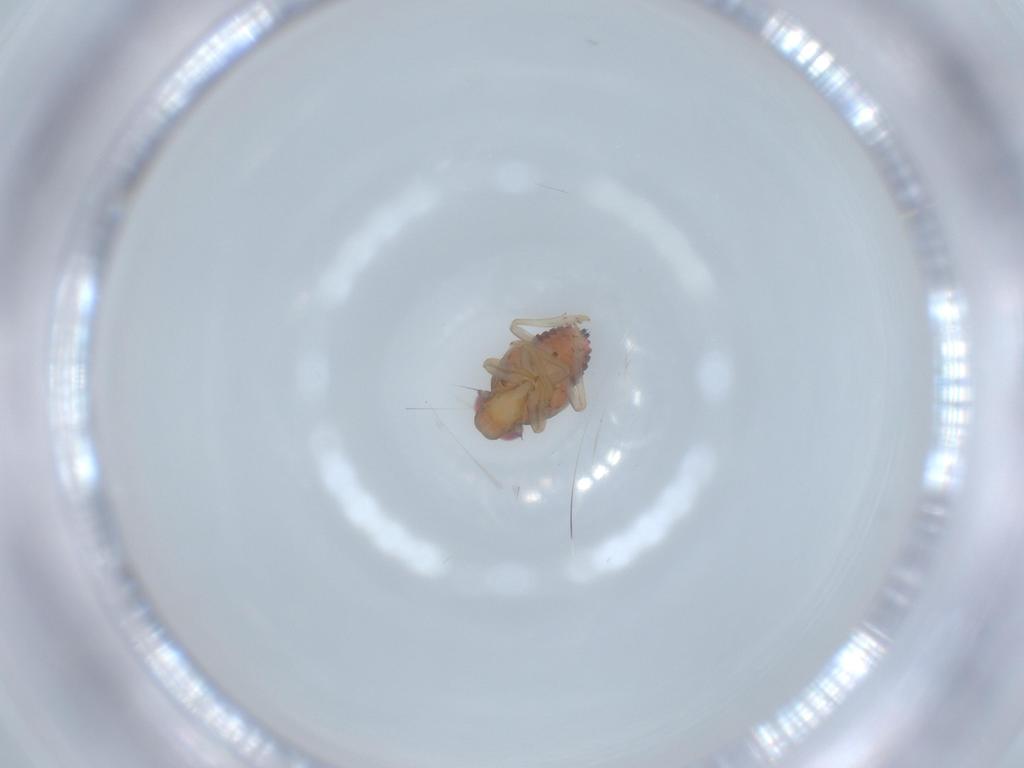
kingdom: Animalia
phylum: Arthropoda
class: Insecta
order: Hemiptera
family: Issidae
